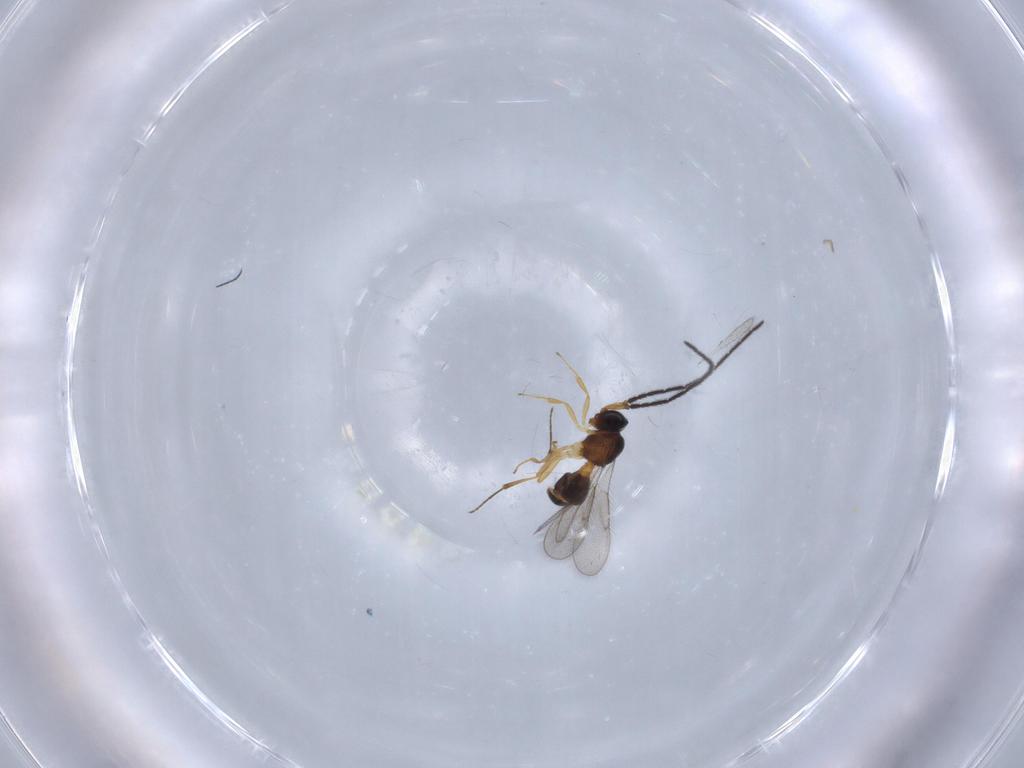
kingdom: Animalia
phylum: Arthropoda
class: Insecta
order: Hymenoptera
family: Scelionidae
